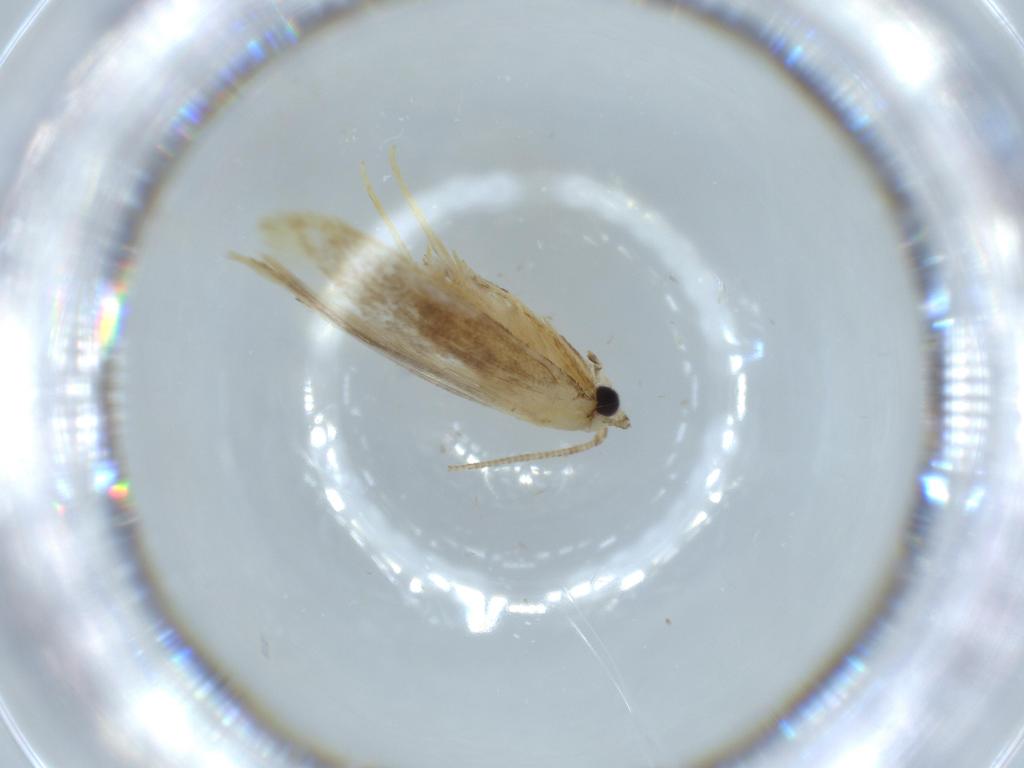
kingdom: Animalia
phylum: Arthropoda
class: Insecta
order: Lepidoptera
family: Tineidae
